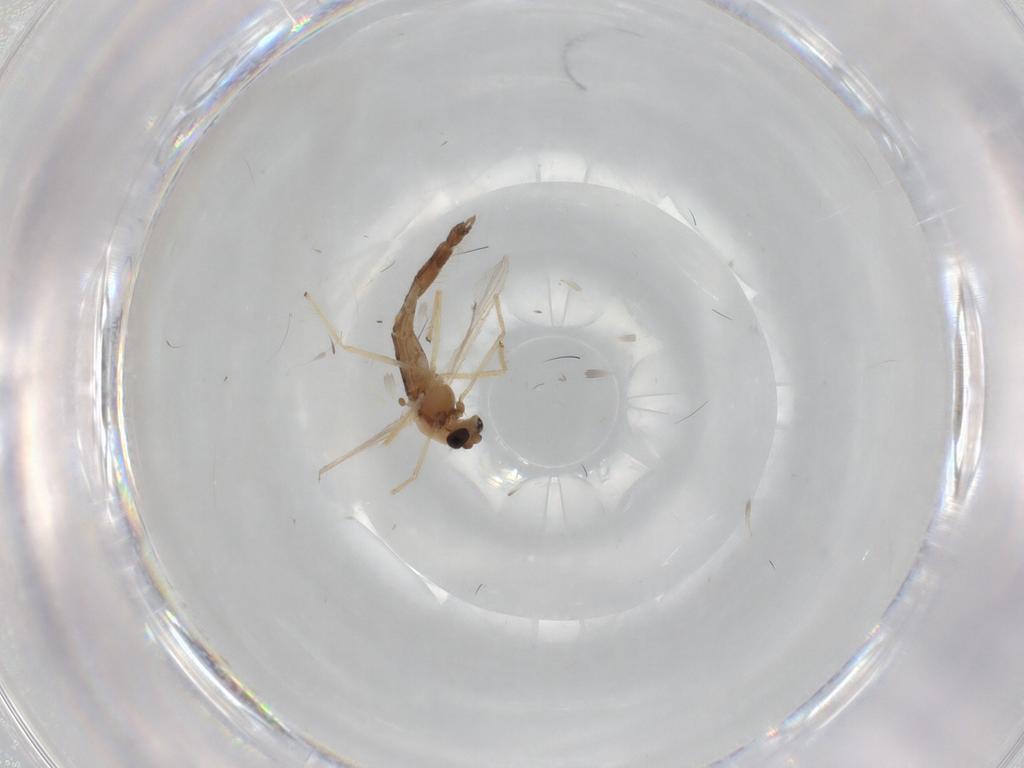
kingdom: Animalia
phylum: Arthropoda
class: Insecta
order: Diptera
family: Chironomidae
